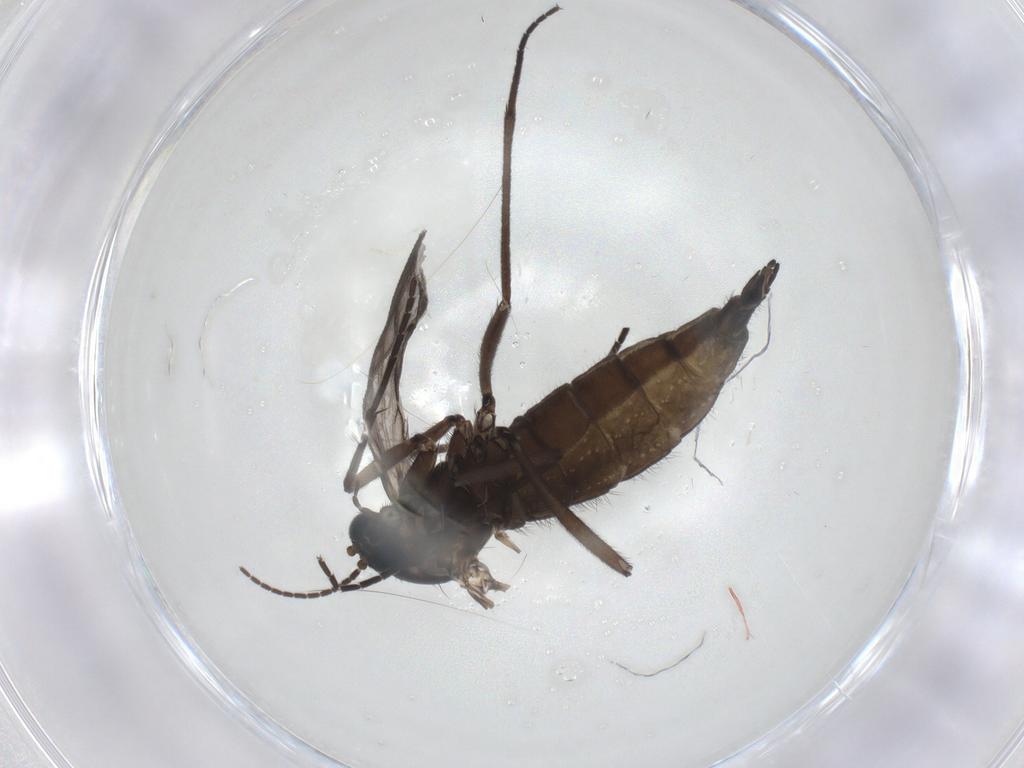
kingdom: Animalia
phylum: Arthropoda
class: Insecta
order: Diptera
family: Sciaridae
